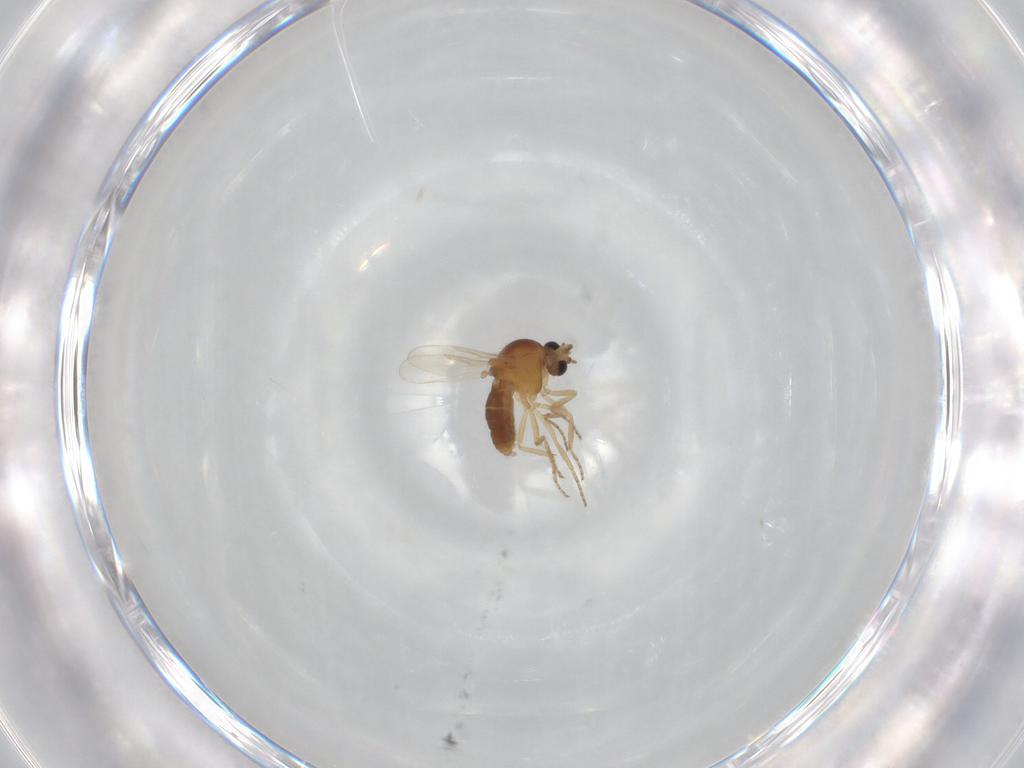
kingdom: Animalia
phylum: Arthropoda
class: Insecta
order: Diptera
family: Ceratopogonidae
